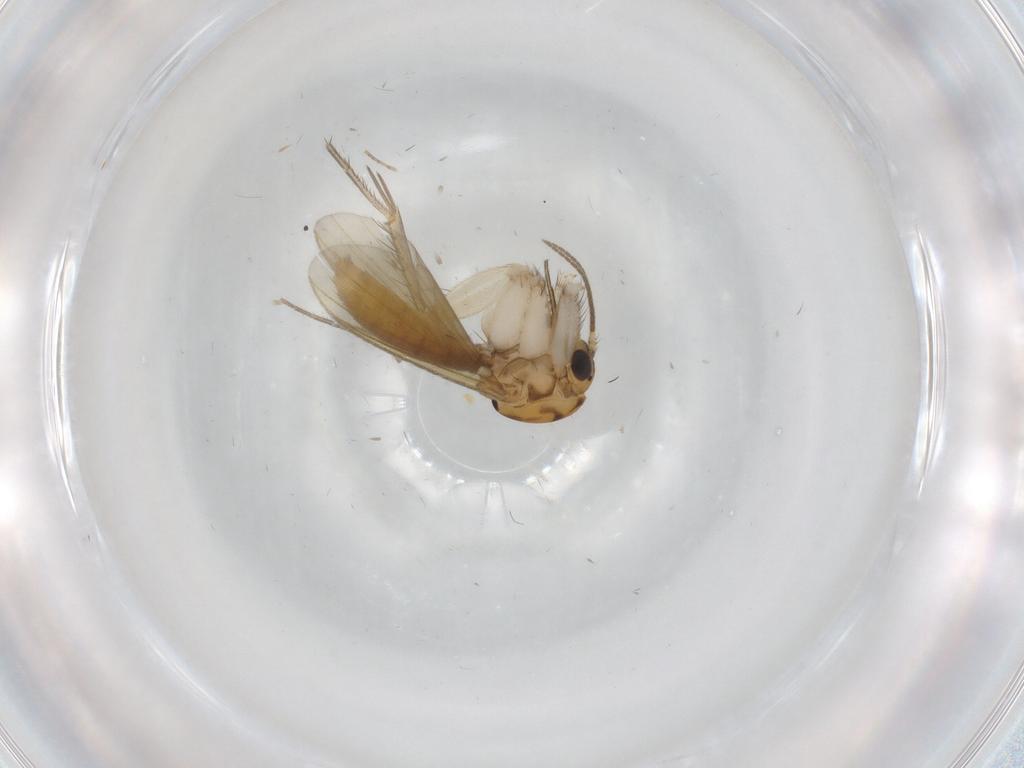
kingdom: Animalia
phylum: Arthropoda
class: Insecta
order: Diptera
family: Mycetophilidae
